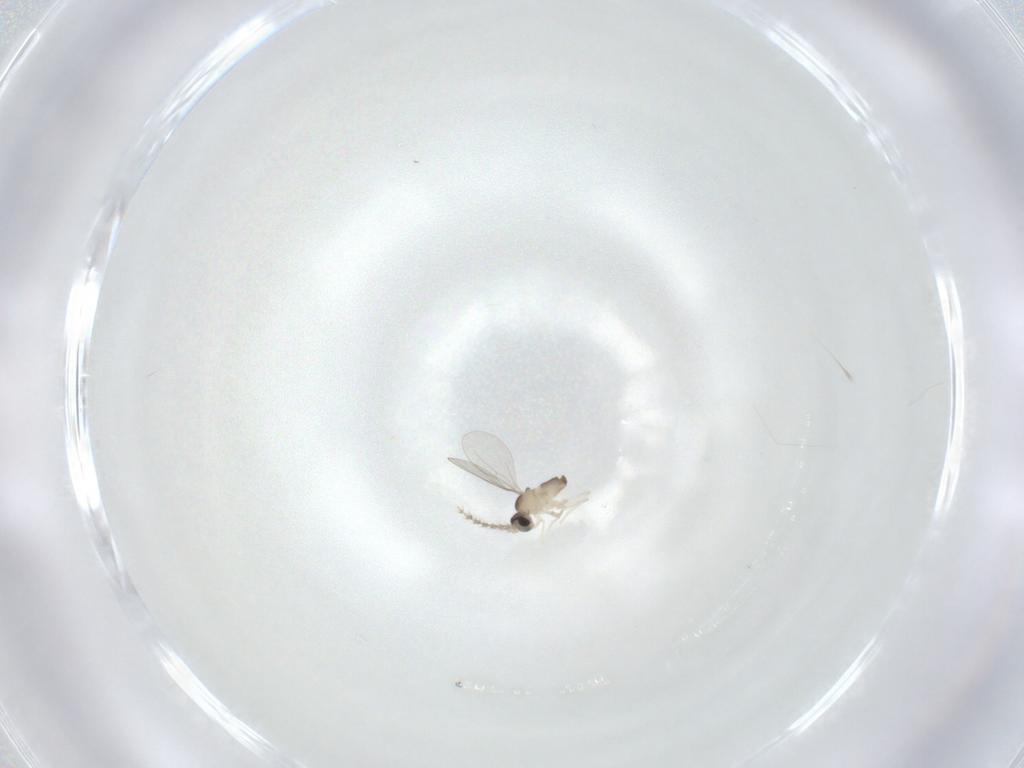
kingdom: Animalia
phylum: Arthropoda
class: Insecta
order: Diptera
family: Cecidomyiidae
